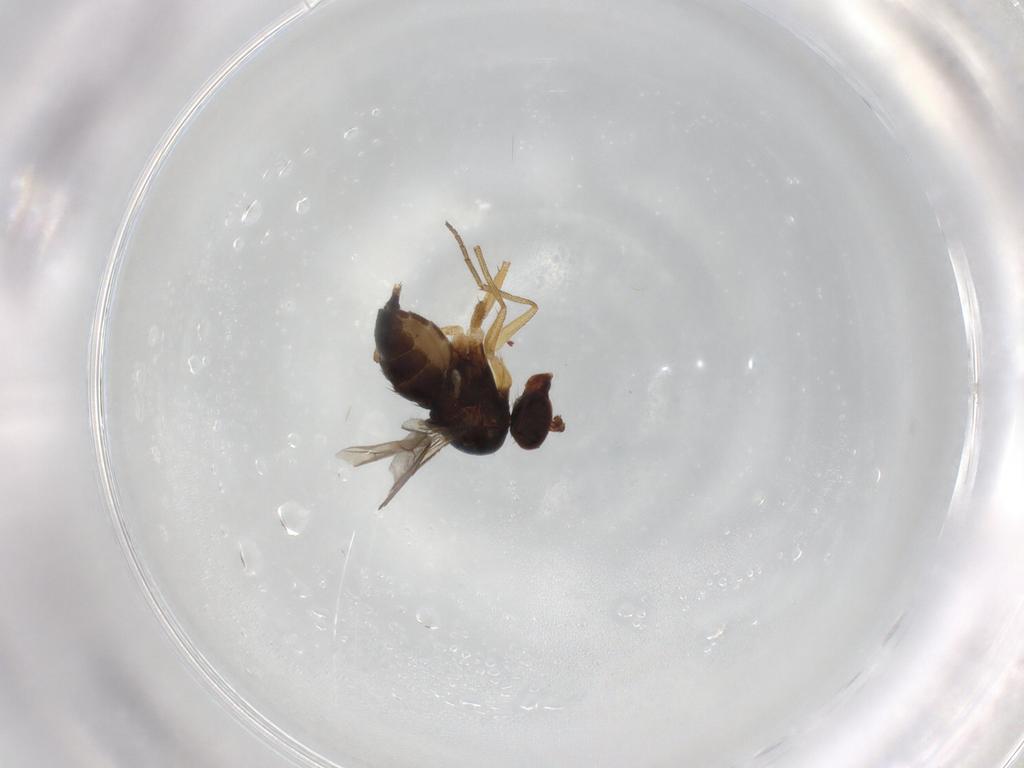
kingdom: Animalia
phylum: Arthropoda
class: Insecta
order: Diptera
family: Dolichopodidae
